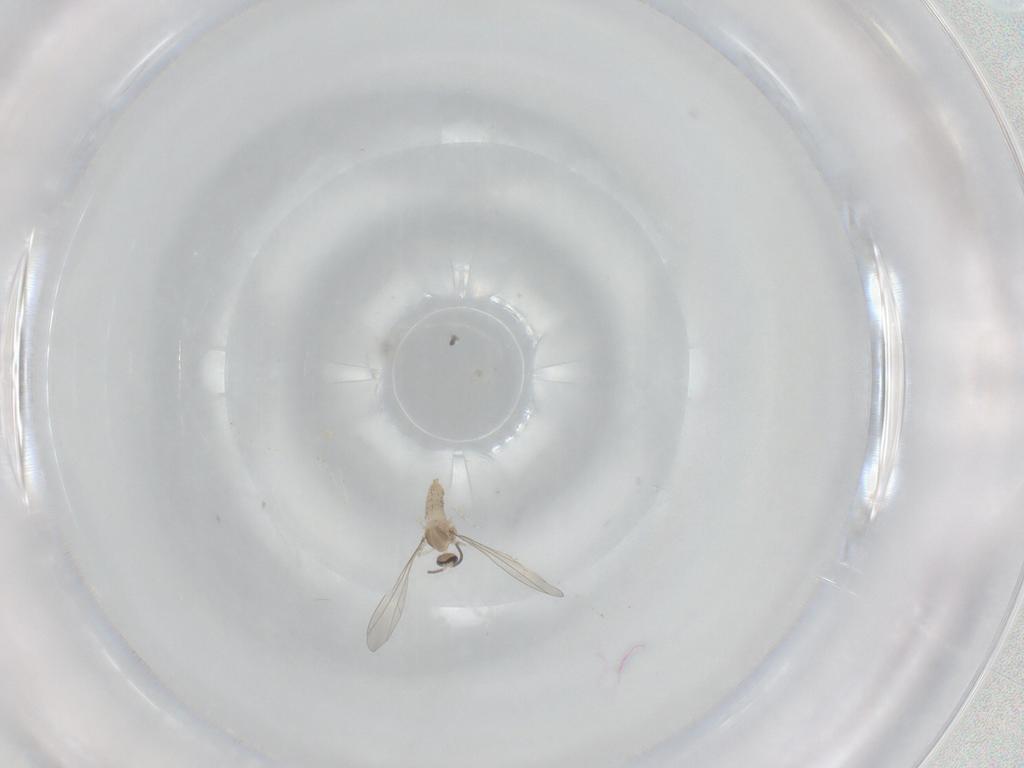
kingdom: Animalia
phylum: Arthropoda
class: Insecta
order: Diptera
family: Cecidomyiidae
